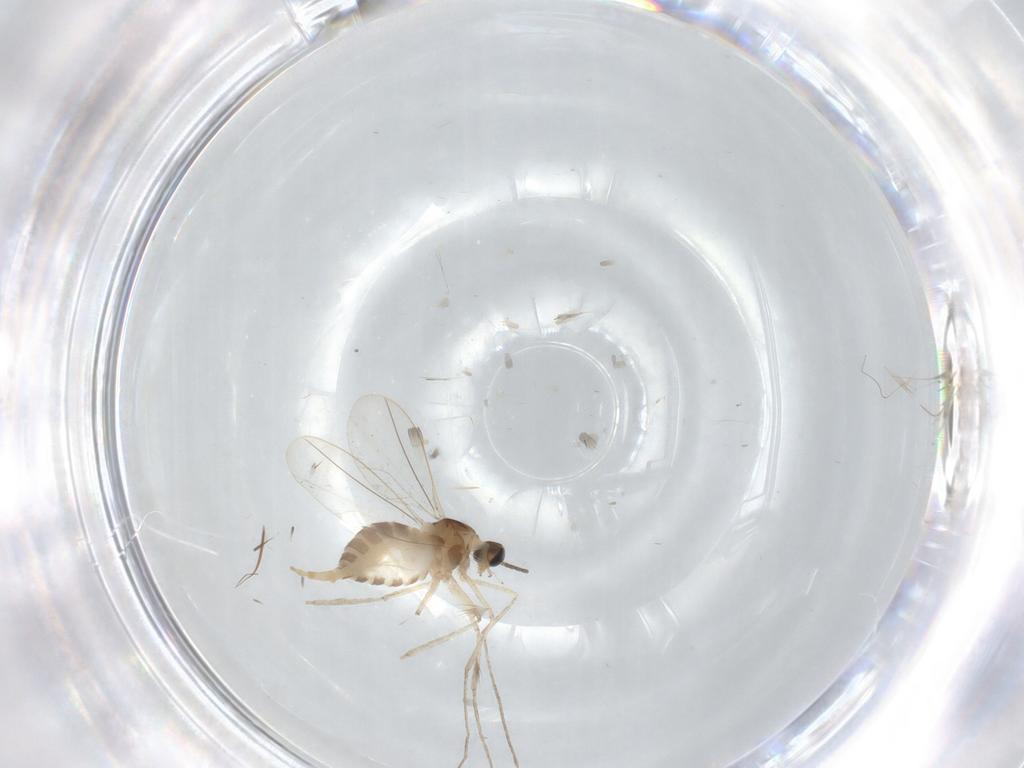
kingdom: Animalia
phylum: Arthropoda
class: Insecta
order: Diptera
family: Cecidomyiidae
